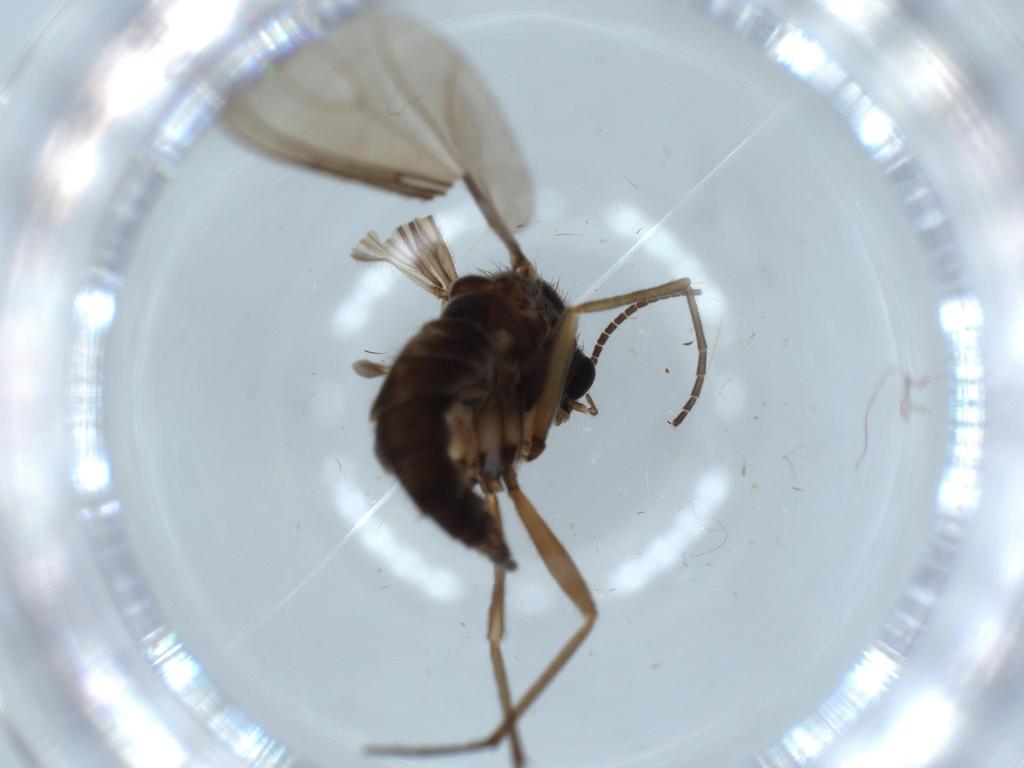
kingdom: Animalia
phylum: Arthropoda
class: Insecta
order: Diptera
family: Sciaridae
